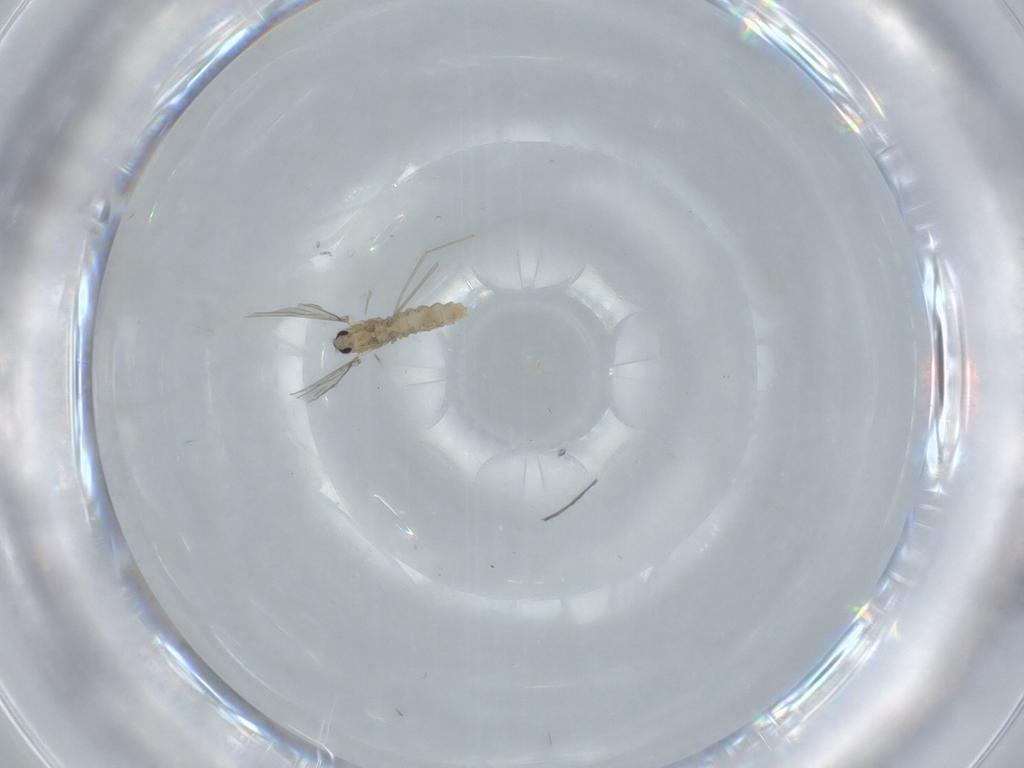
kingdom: Animalia
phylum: Arthropoda
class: Insecta
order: Diptera
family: Cecidomyiidae
